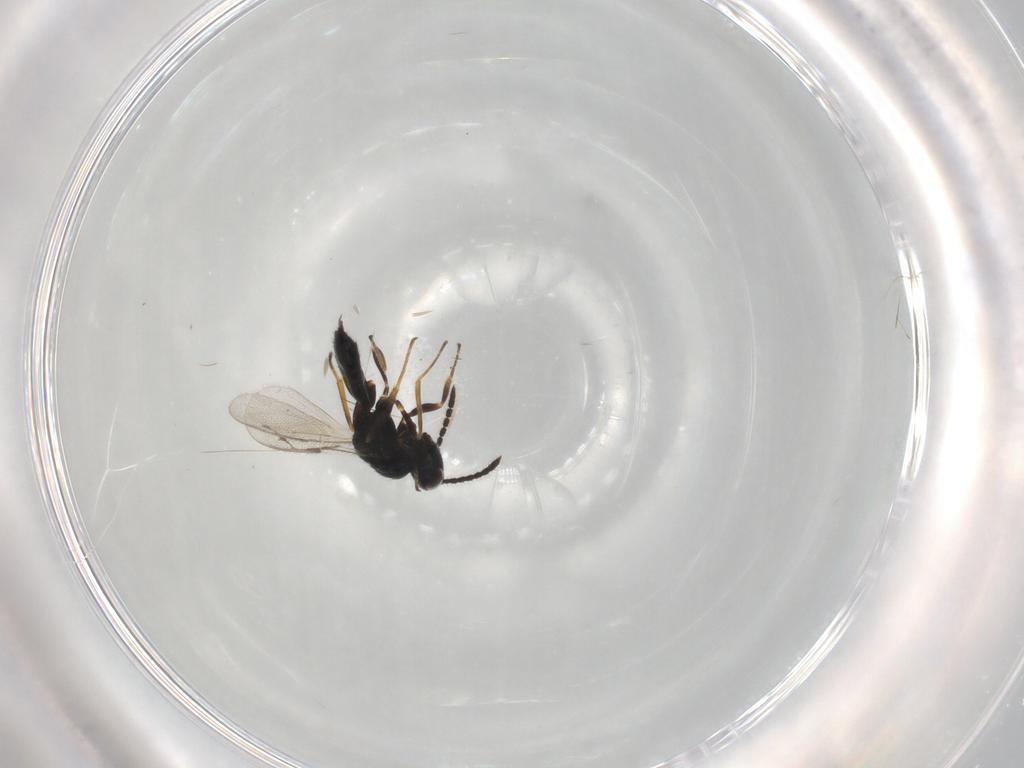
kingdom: Animalia
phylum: Arthropoda
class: Insecta
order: Hymenoptera
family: Pteromalidae
